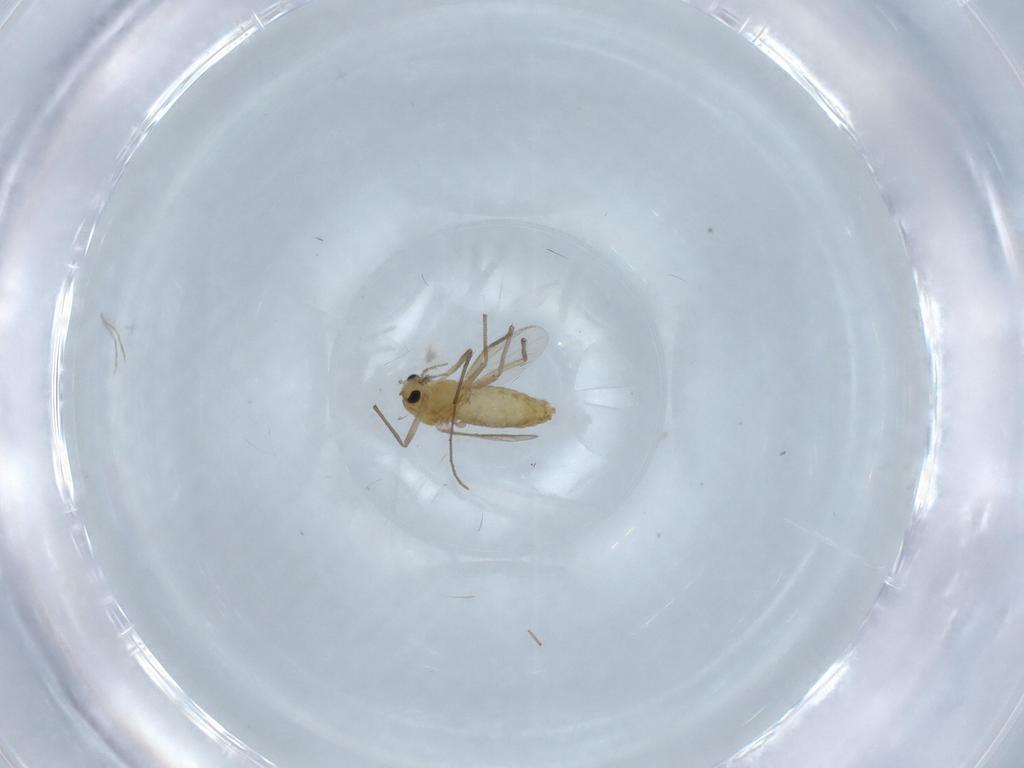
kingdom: Animalia
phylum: Arthropoda
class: Insecta
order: Diptera
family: Chironomidae
